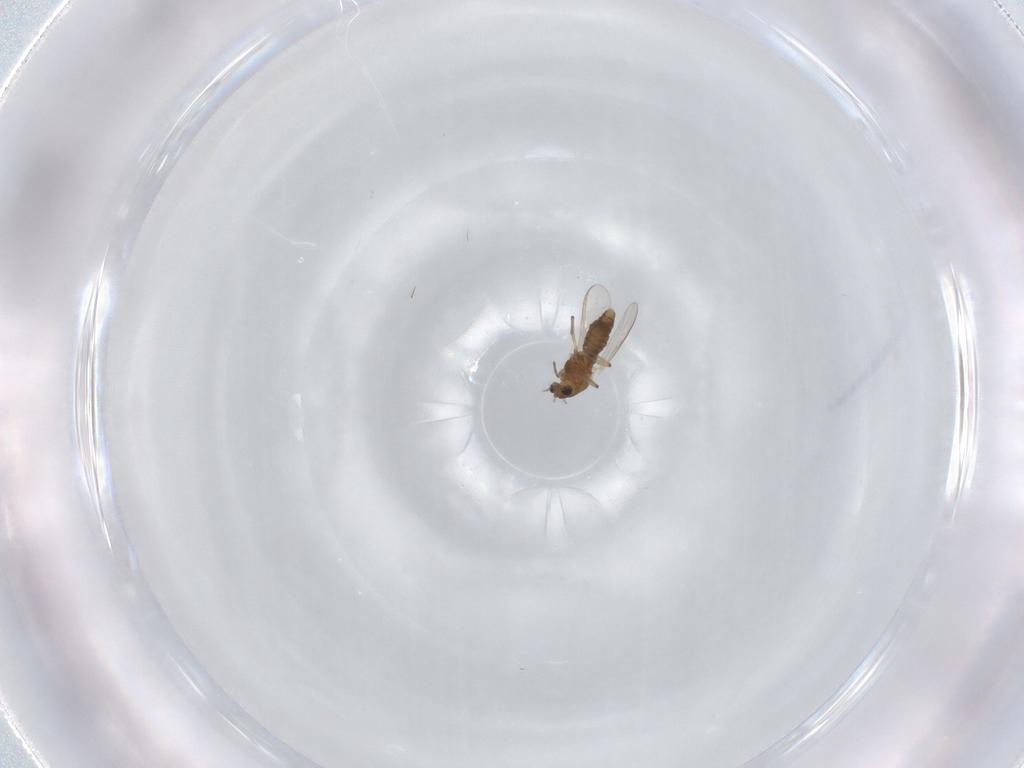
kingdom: Animalia
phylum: Arthropoda
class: Insecta
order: Diptera
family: Chironomidae
